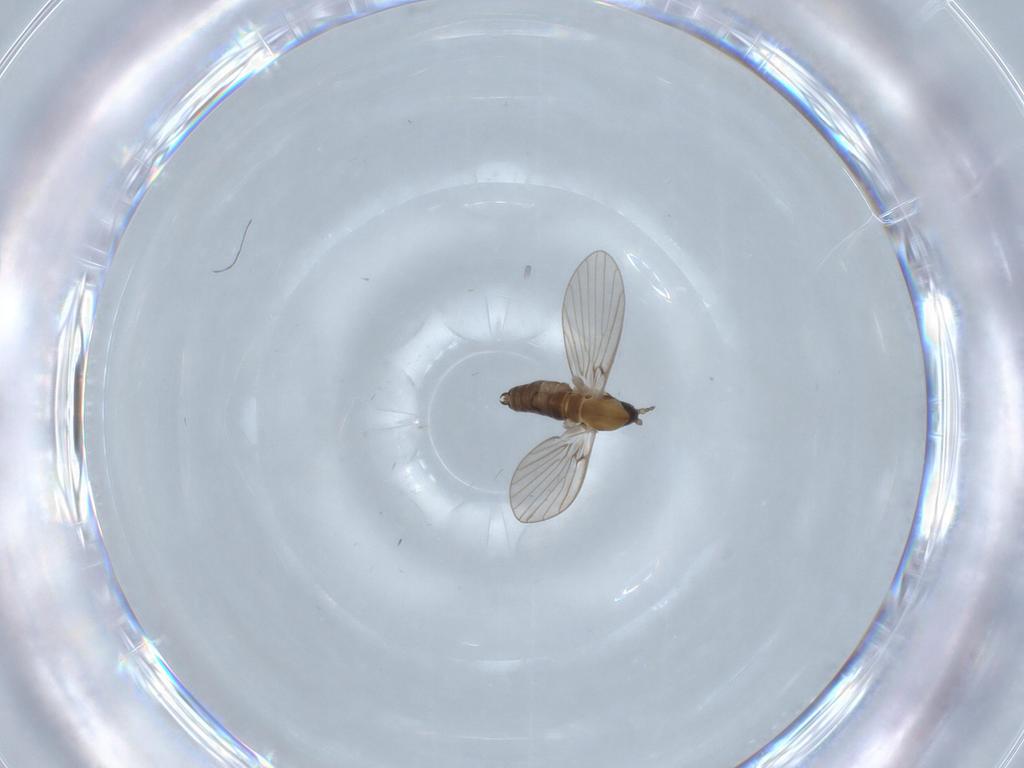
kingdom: Animalia
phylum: Arthropoda
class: Insecta
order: Diptera
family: Psychodidae
